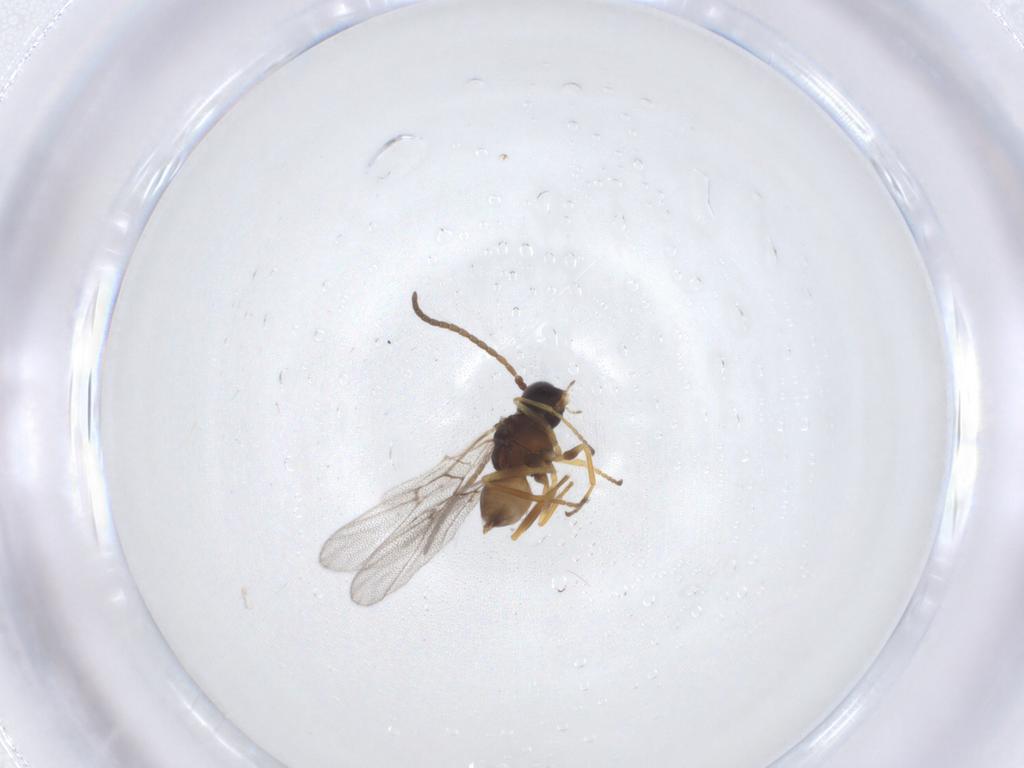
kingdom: Animalia
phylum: Arthropoda
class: Insecta
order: Hymenoptera
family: Cynipidae
